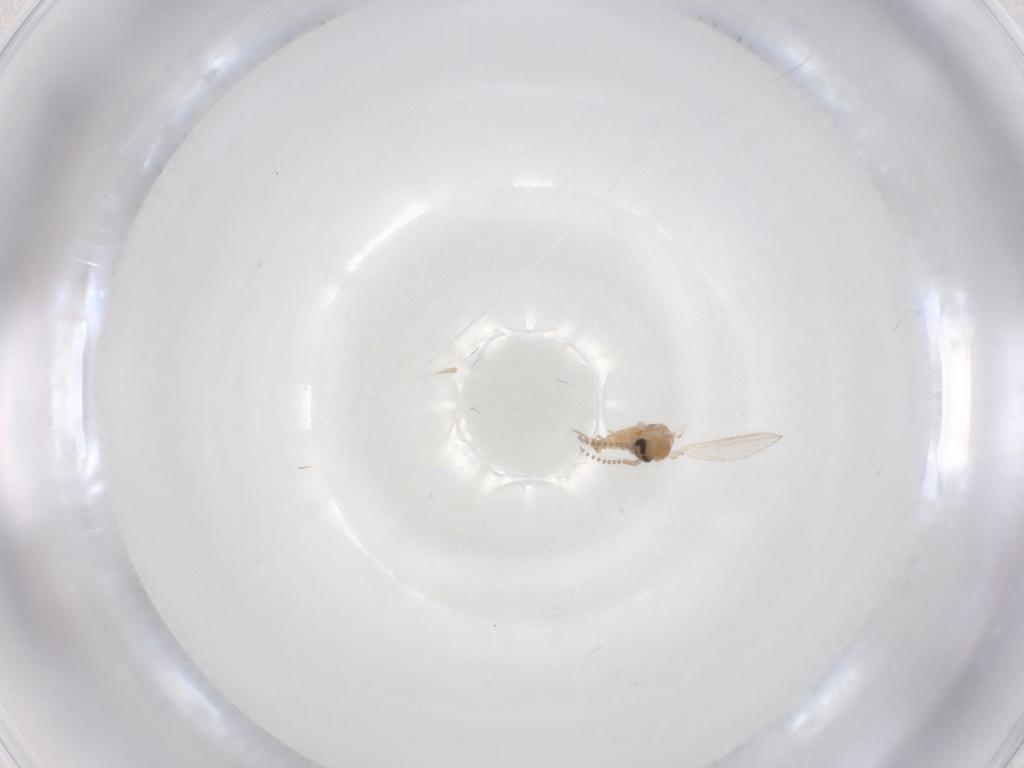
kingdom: Animalia
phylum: Arthropoda
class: Insecta
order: Diptera
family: Psychodidae
